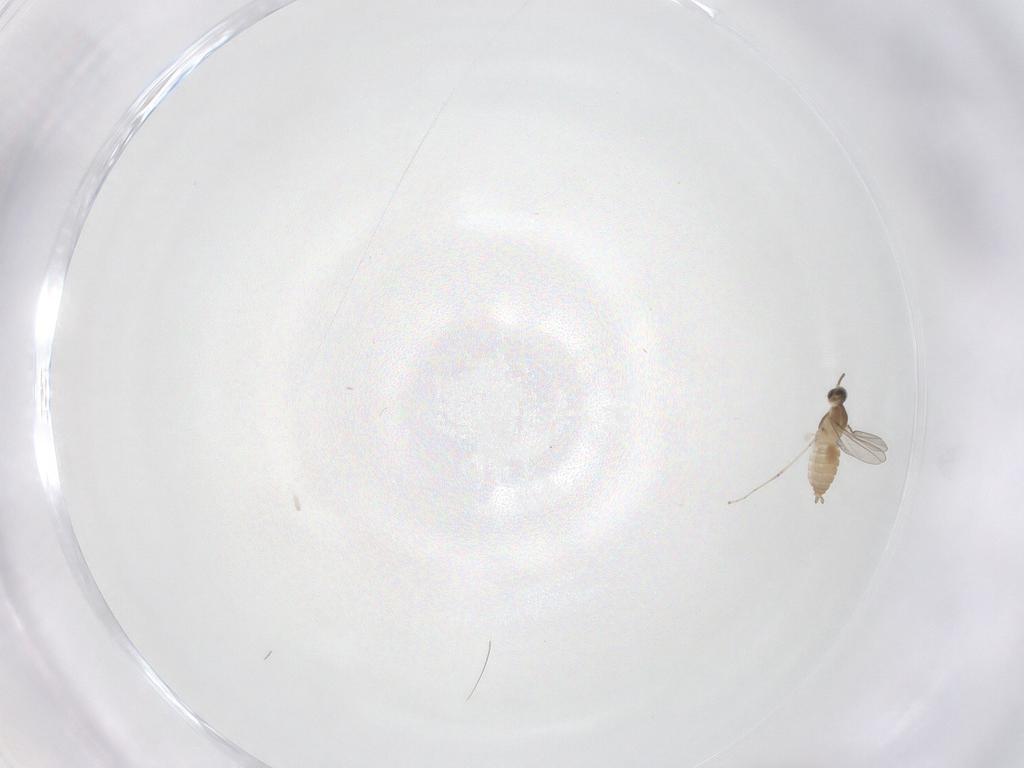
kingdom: Animalia
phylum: Arthropoda
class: Insecta
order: Diptera
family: Cecidomyiidae
